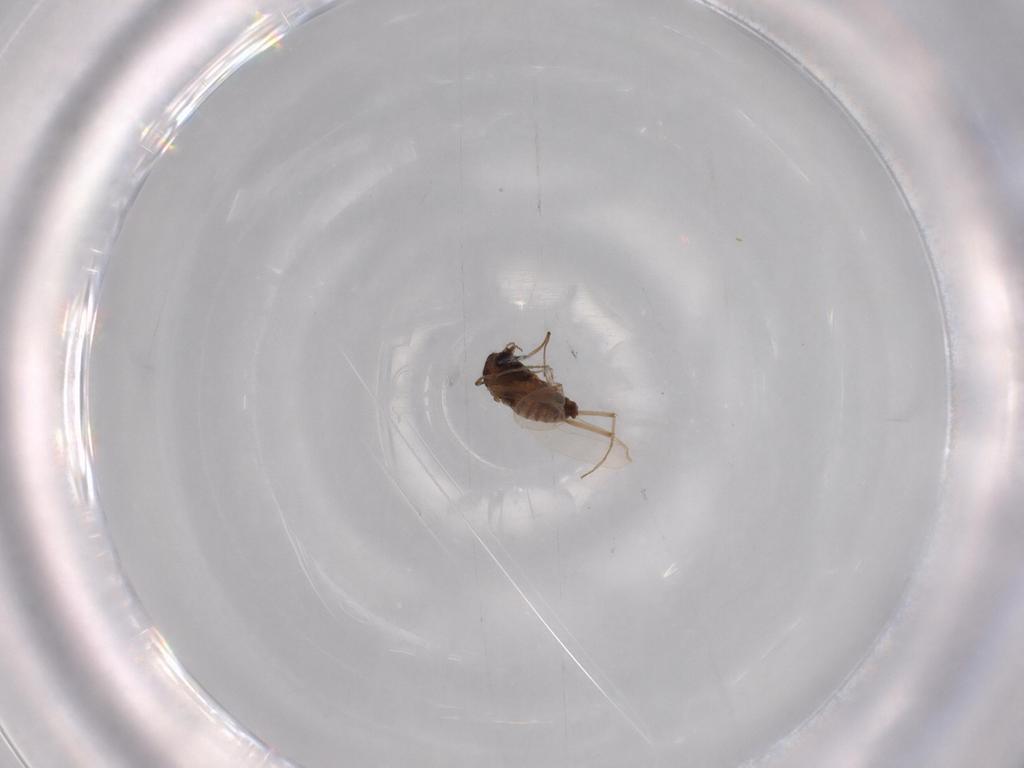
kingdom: Animalia
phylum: Arthropoda
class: Insecta
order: Diptera
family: Chironomidae
